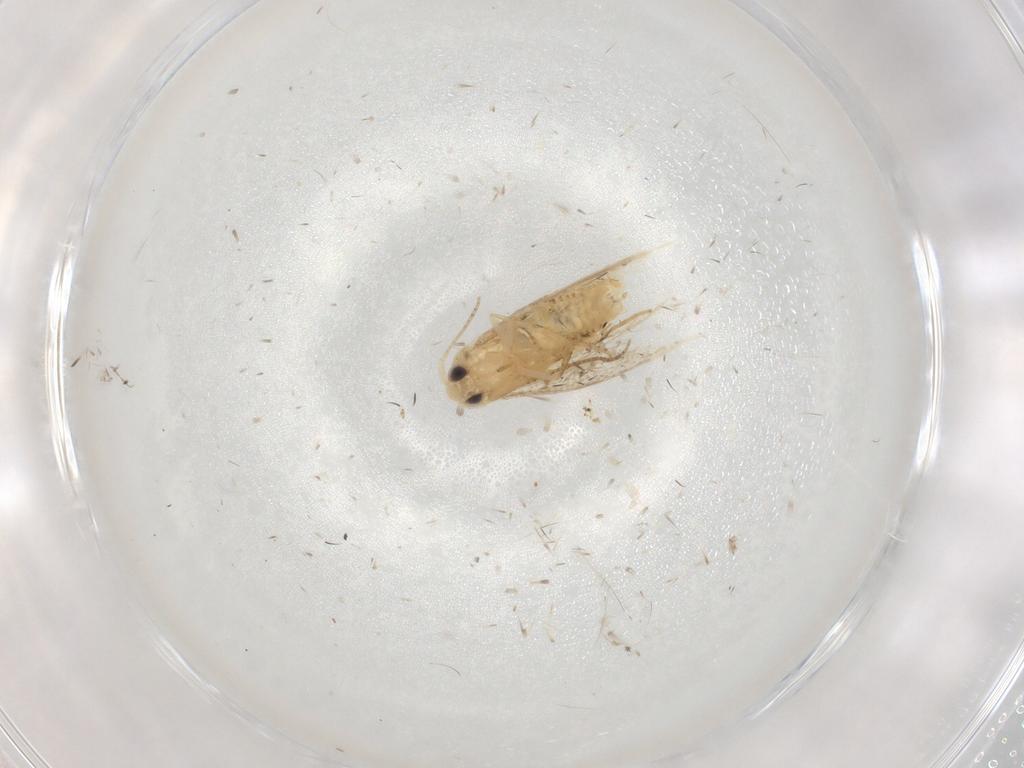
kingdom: Animalia
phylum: Arthropoda
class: Insecta
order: Lepidoptera
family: Bucculatricidae
